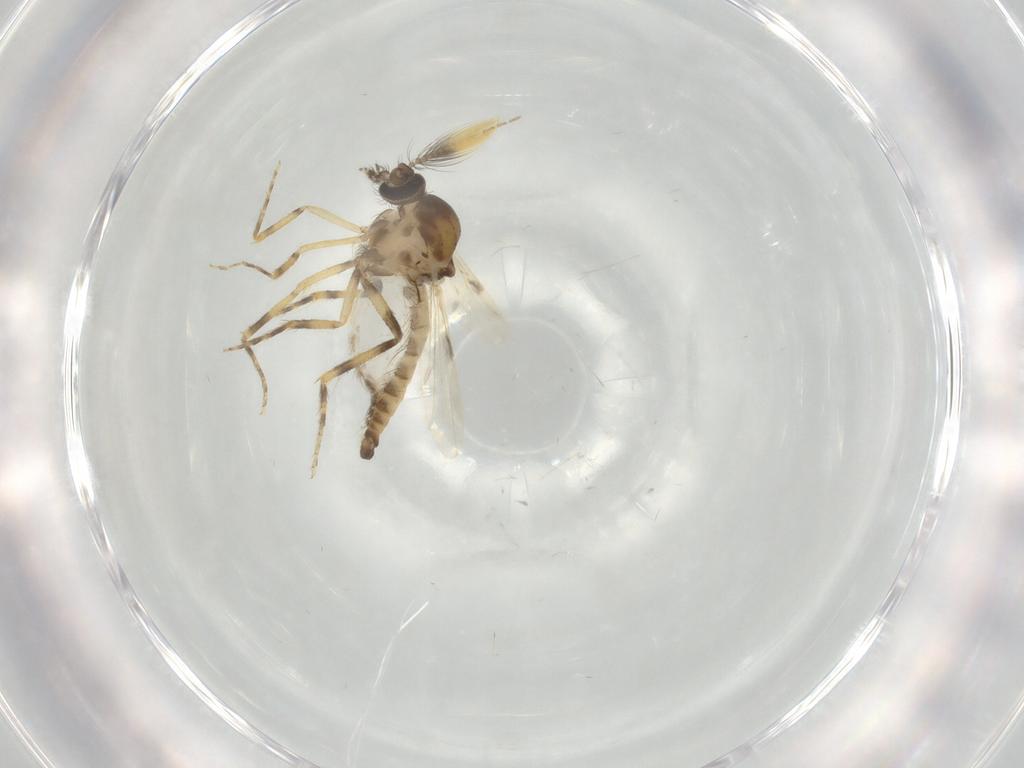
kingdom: Animalia
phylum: Arthropoda
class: Insecta
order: Diptera
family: Ceratopogonidae
